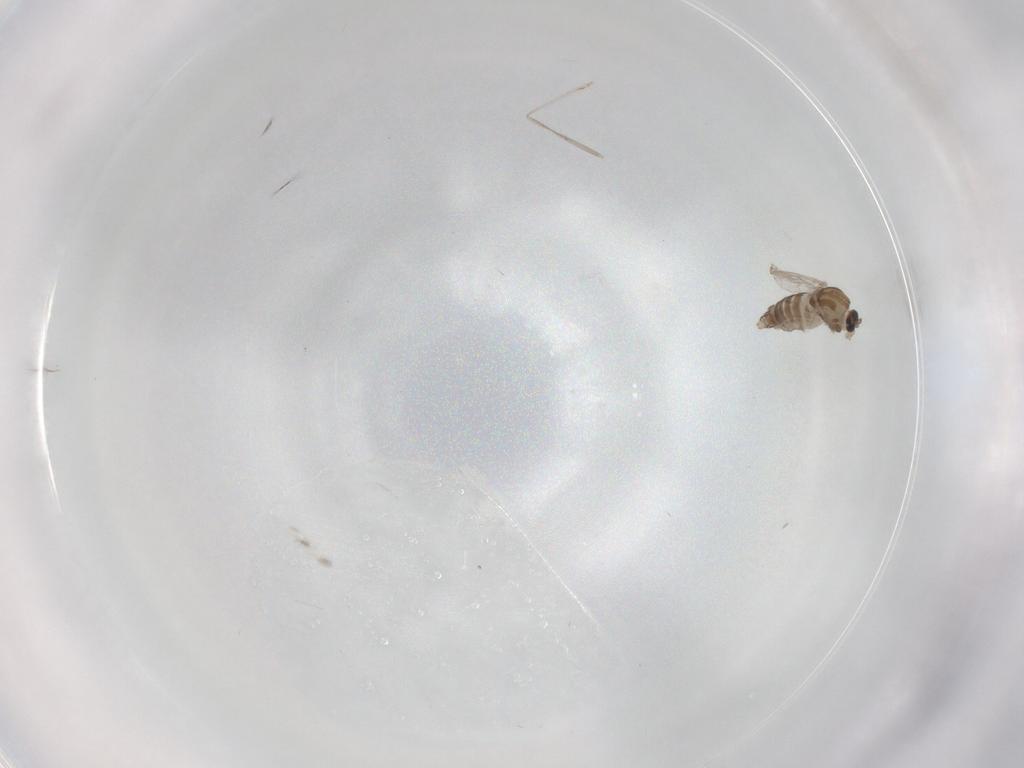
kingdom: Animalia
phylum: Arthropoda
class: Insecta
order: Diptera
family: Chironomidae
